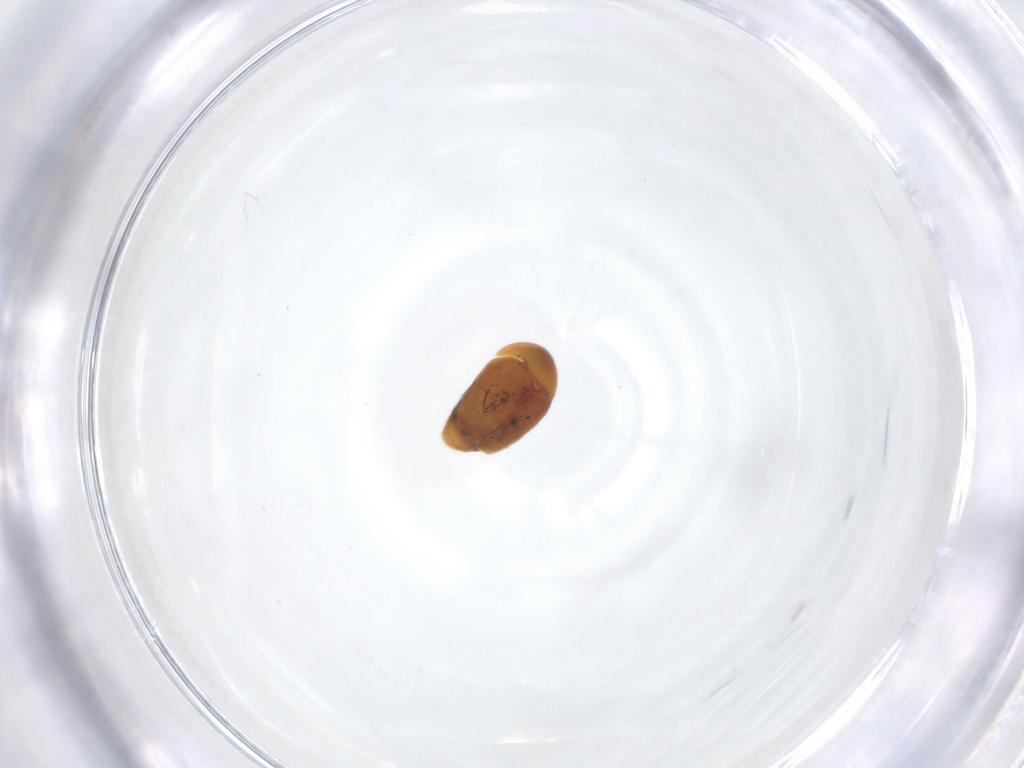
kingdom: Animalia
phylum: Arthropoda
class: Insecta
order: Coleoptera
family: Corylophidae
